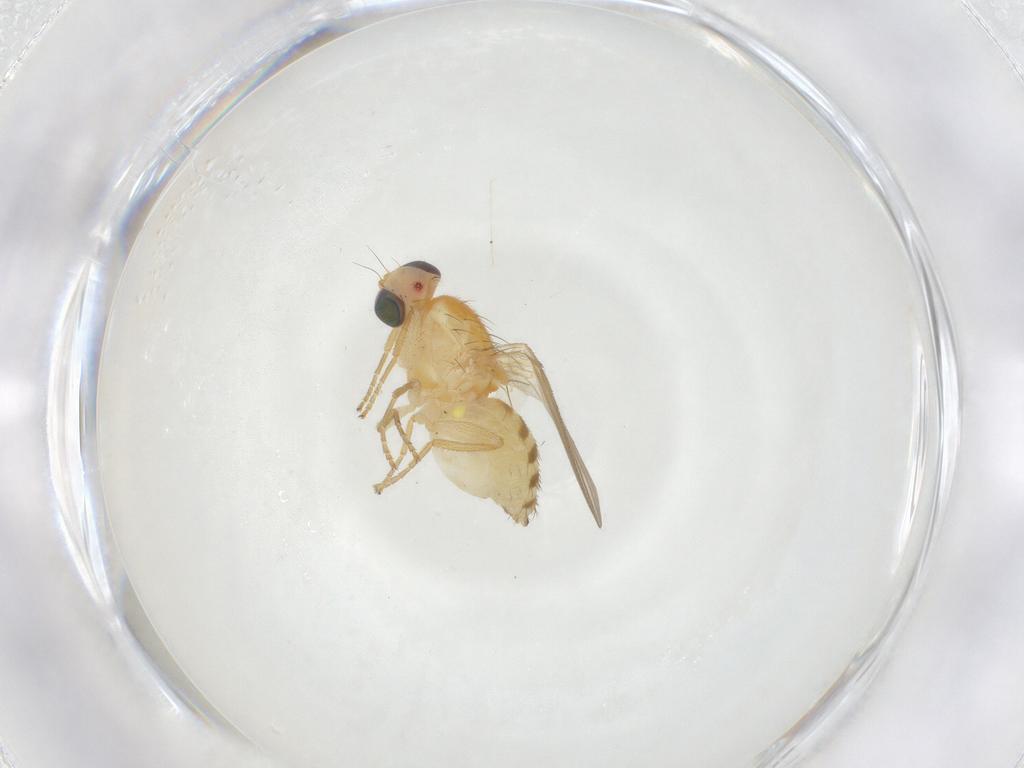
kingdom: Animalia
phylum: Arthropoda
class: Insecta
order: Diptera
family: Chyromyidae
